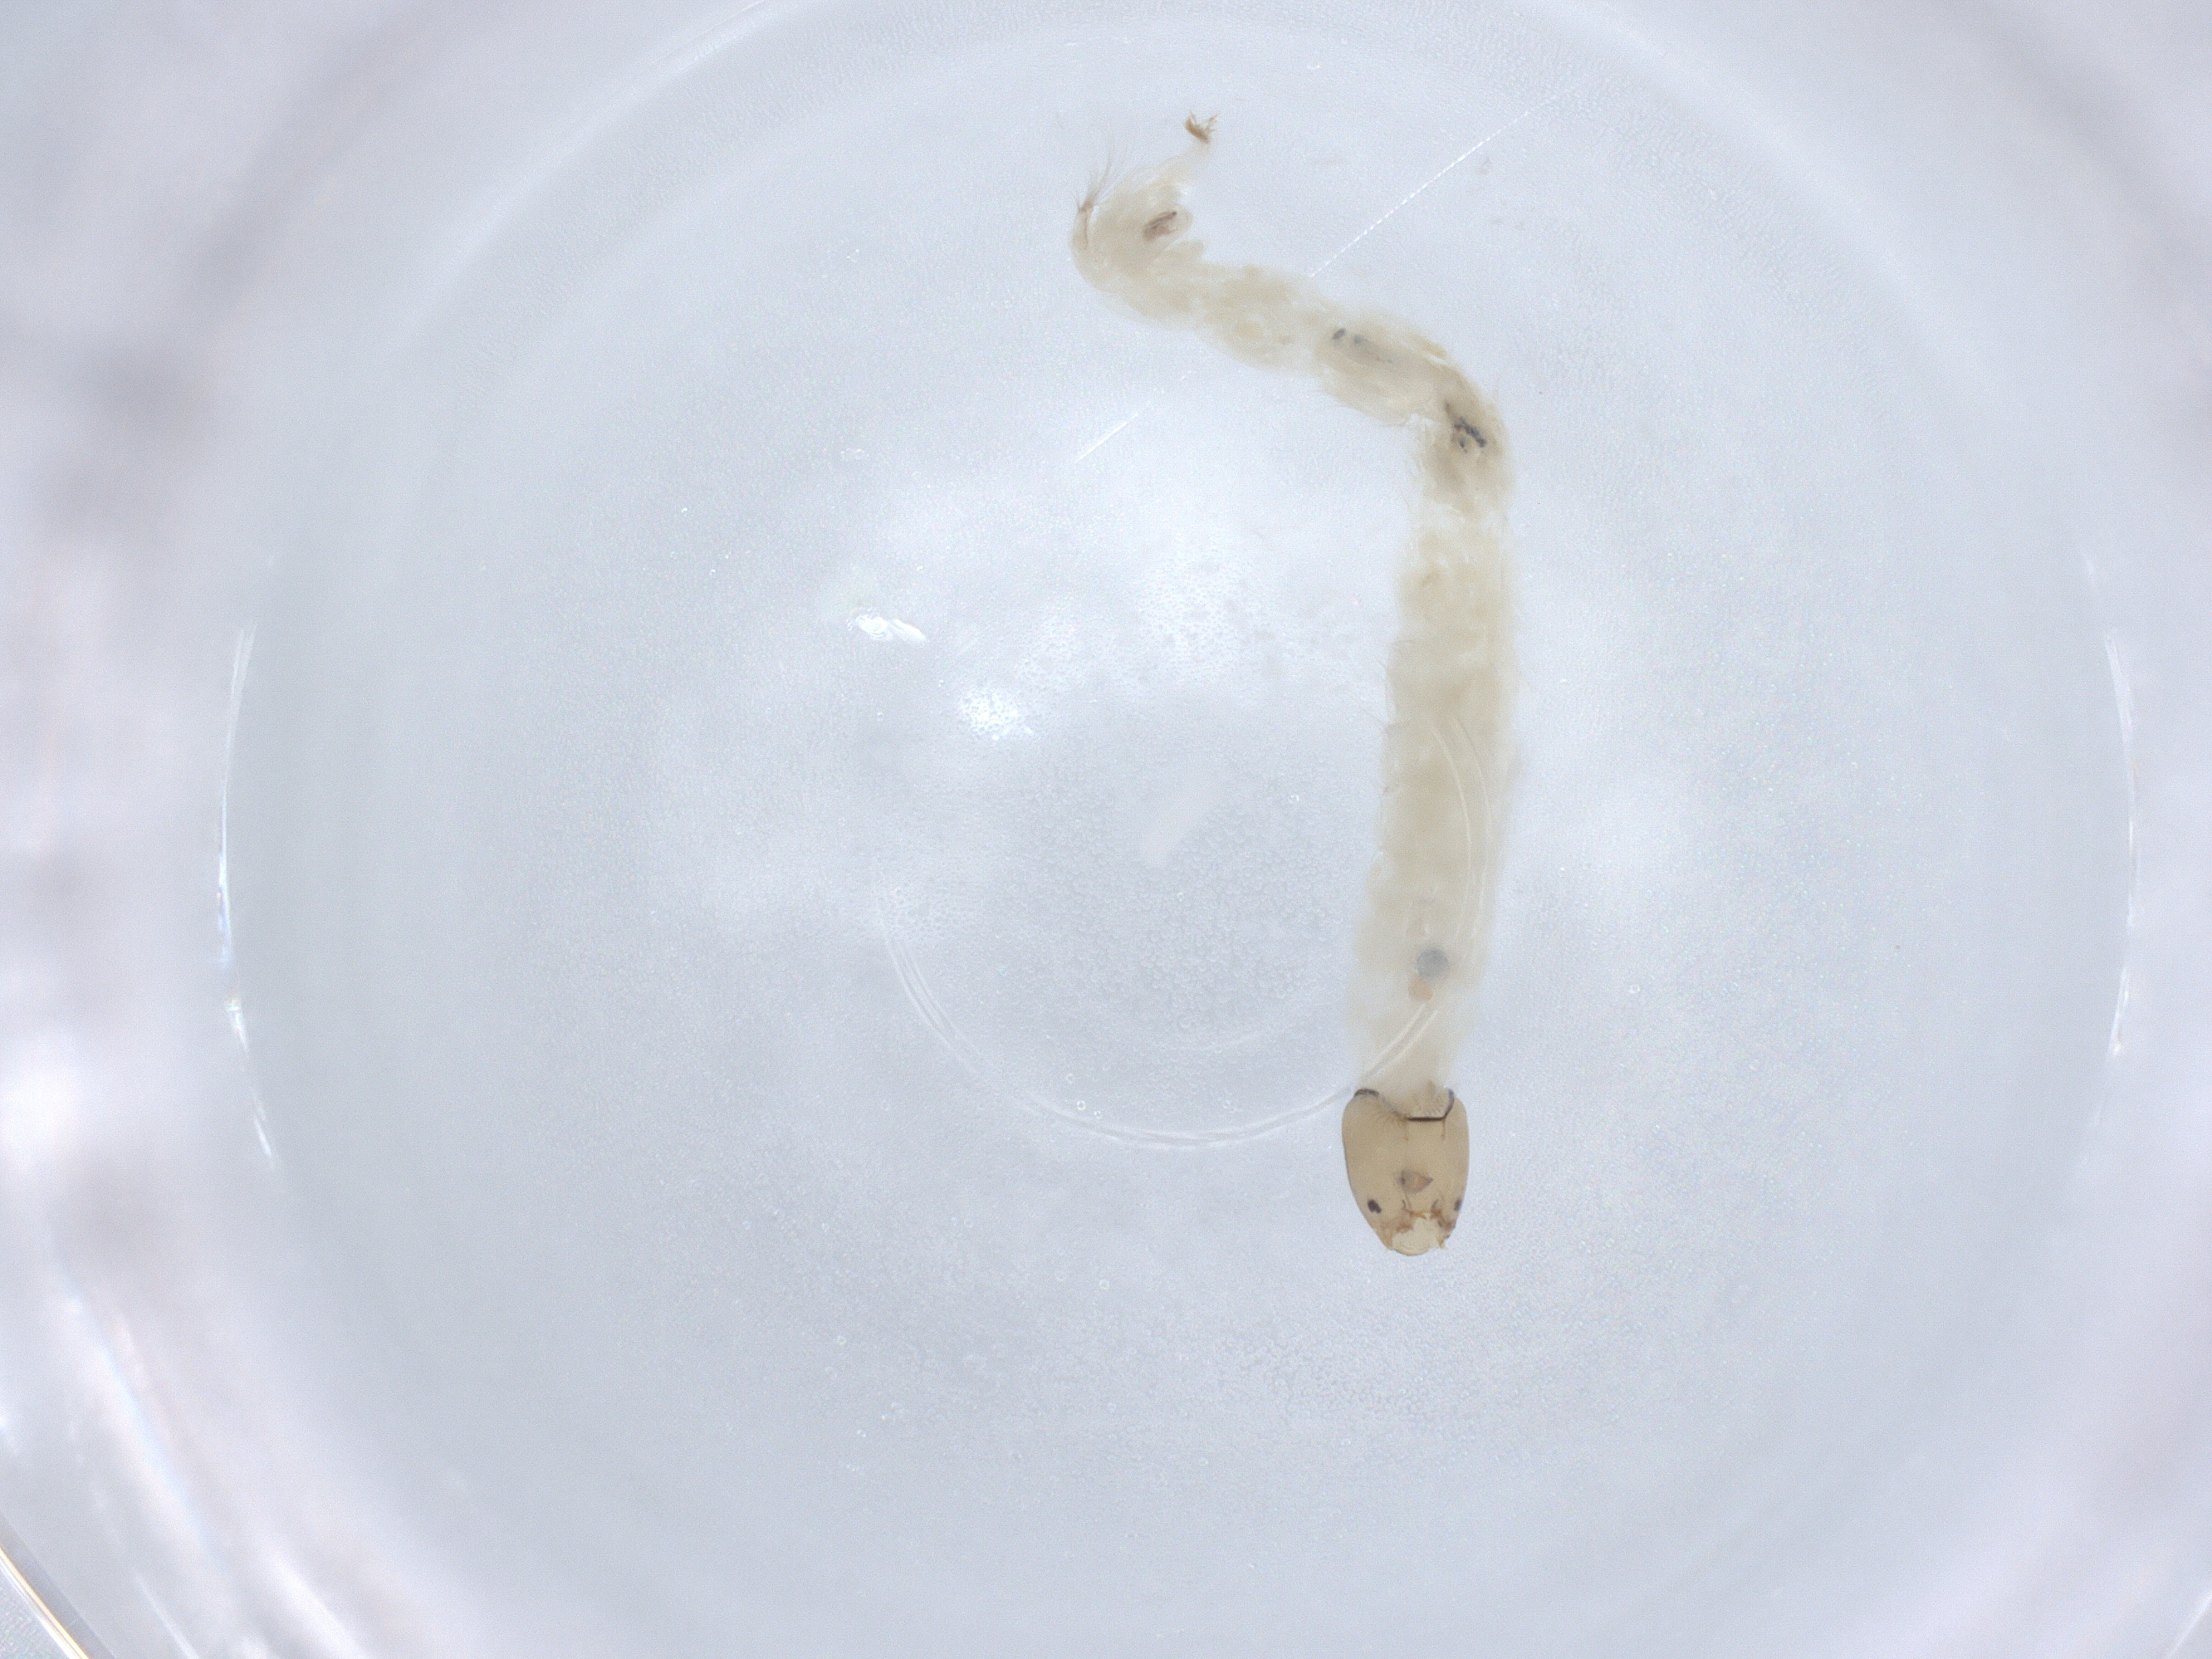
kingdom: Animalia
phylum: Arthropoda
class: Insecta
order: Diptera
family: Chironomidae
